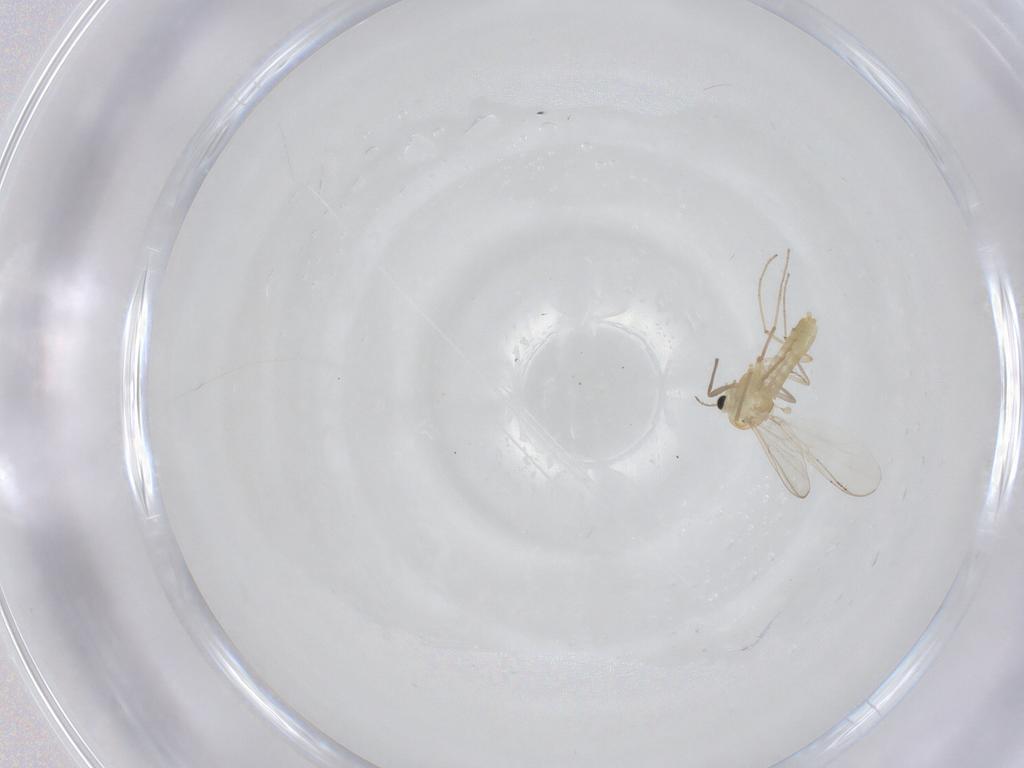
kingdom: Animalia
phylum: Arthropoda
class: Insecta
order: Diptera
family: Chironomidae
